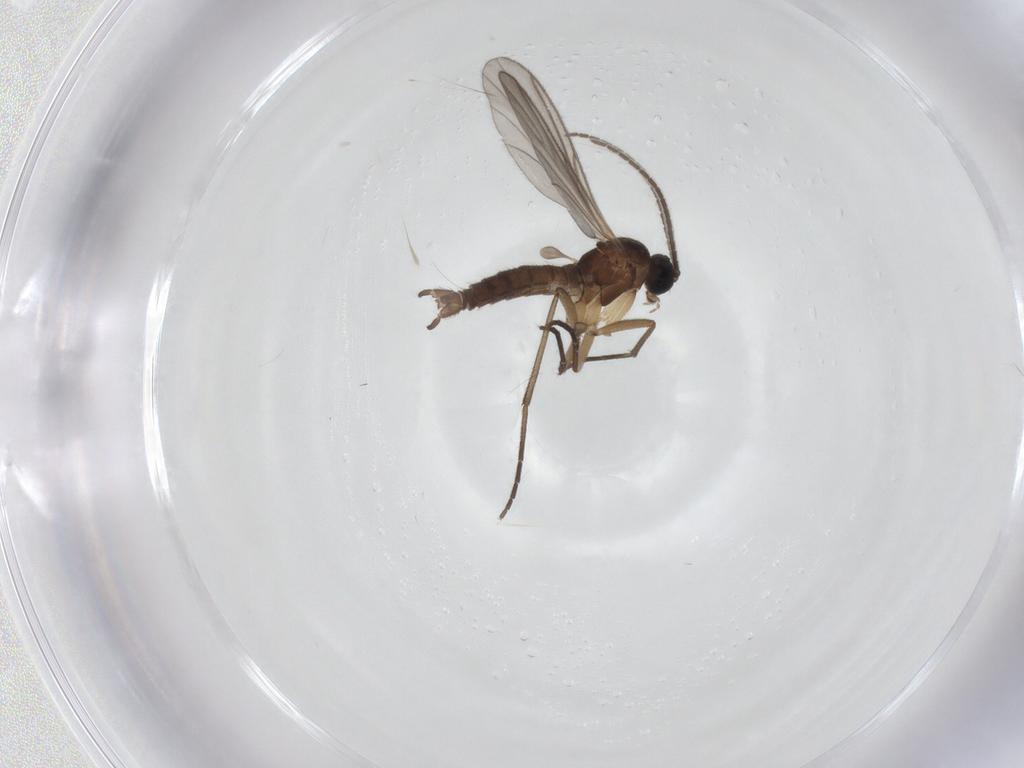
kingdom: Animalia
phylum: Arthropoda
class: Insecta
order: Diptera
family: Sciaridae
